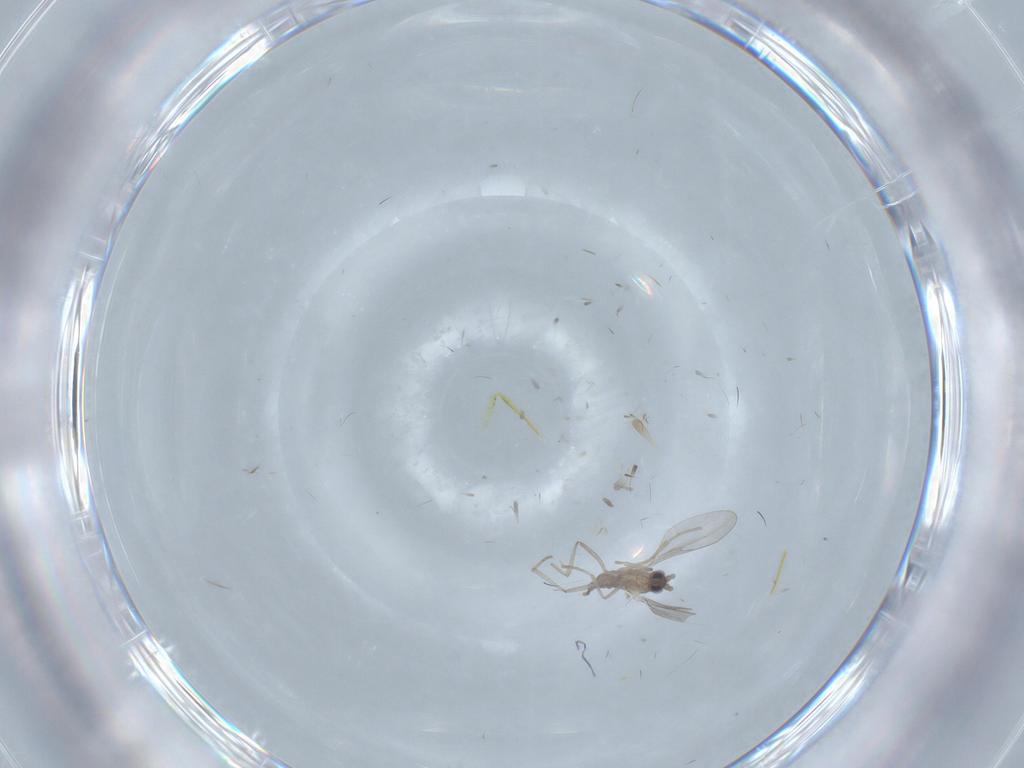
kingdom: Animalia
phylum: Arthropoda
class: Insecta
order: Diptera
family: Cecidomyiidae
